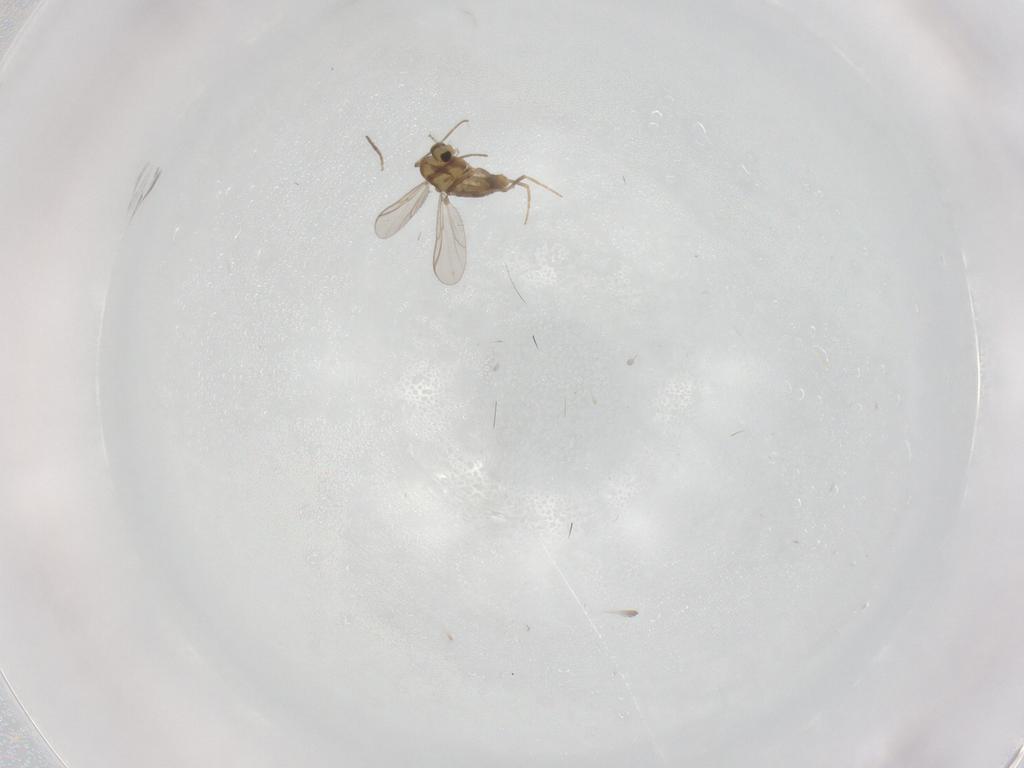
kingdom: Animalia
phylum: Arthropoda
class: Insecta
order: Diptera
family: Chironomidae
